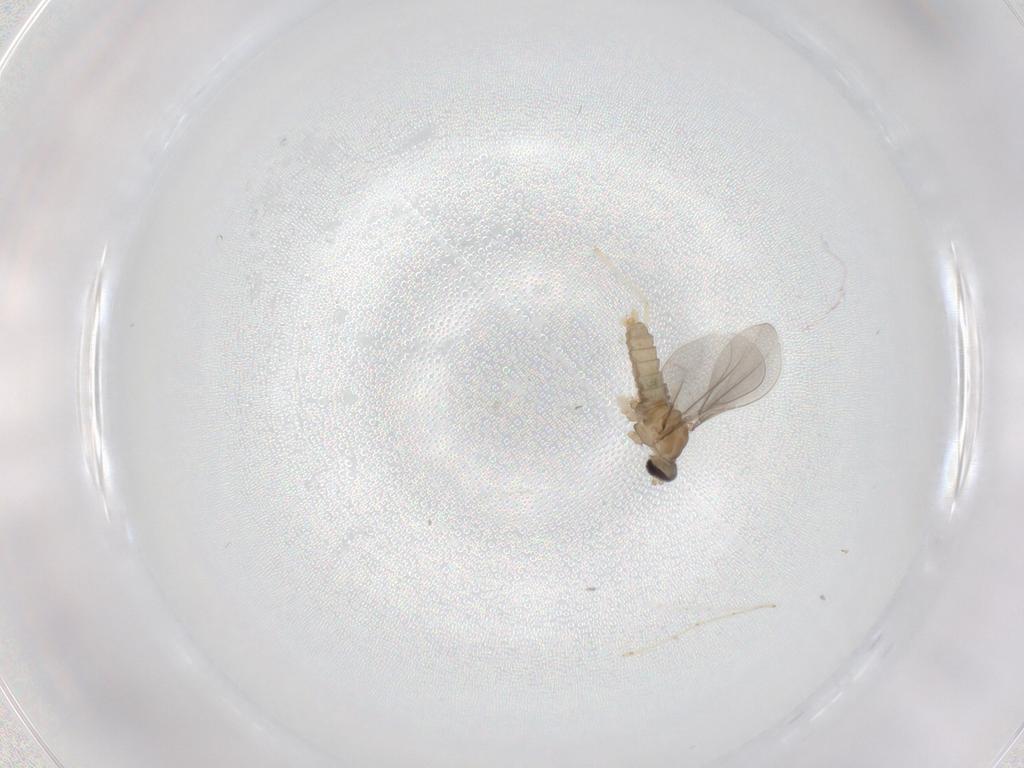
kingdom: Animalia
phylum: Arthropoda
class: Insecta
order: Diptera
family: Cecidomyiidae
